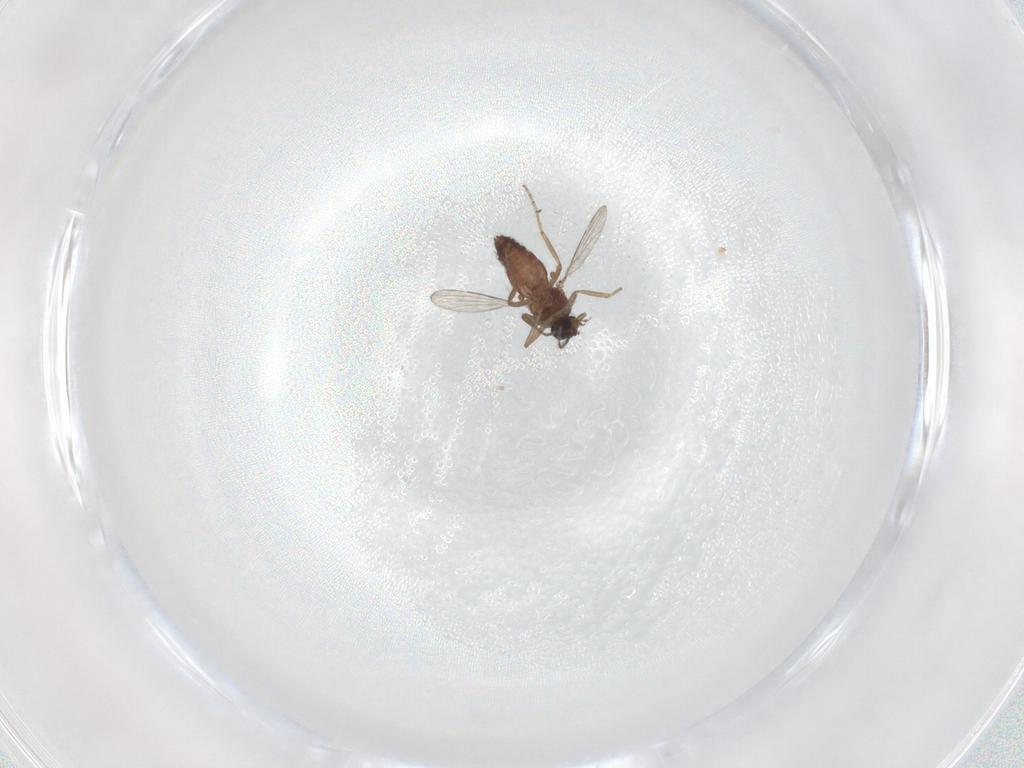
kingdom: Animalia
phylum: Arthropoda
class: Insecta
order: Diptera
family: Ceratopogonidae
